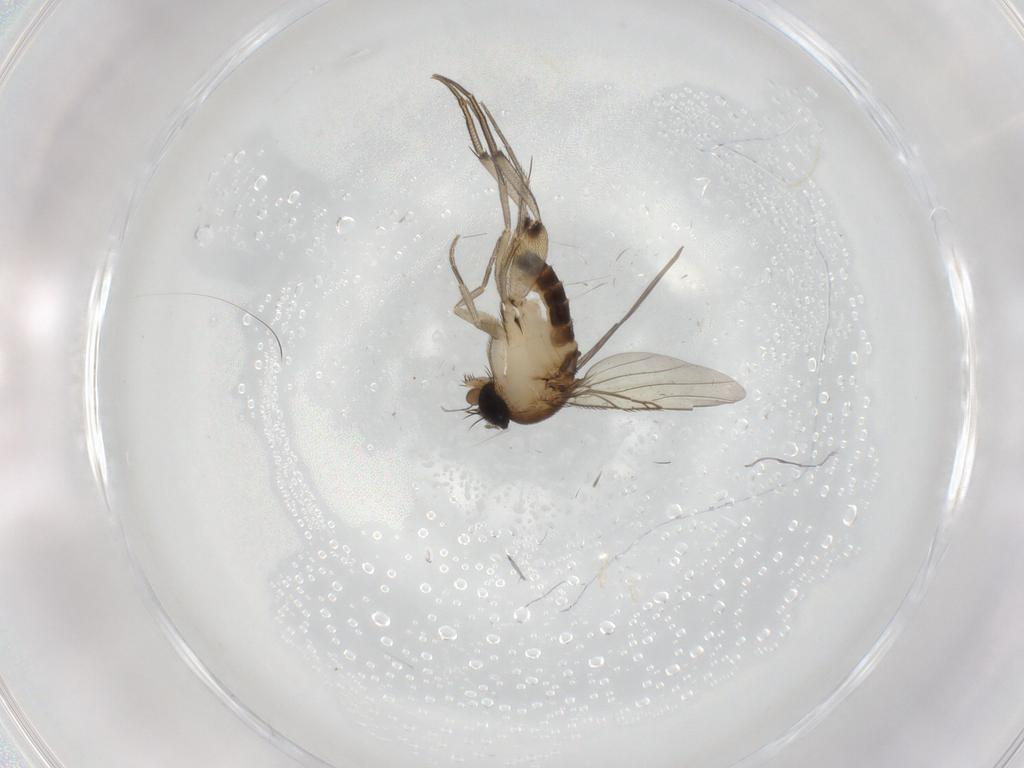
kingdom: Animalia
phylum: Arthropoda
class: Insecta
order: Diptera
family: Phoridae
